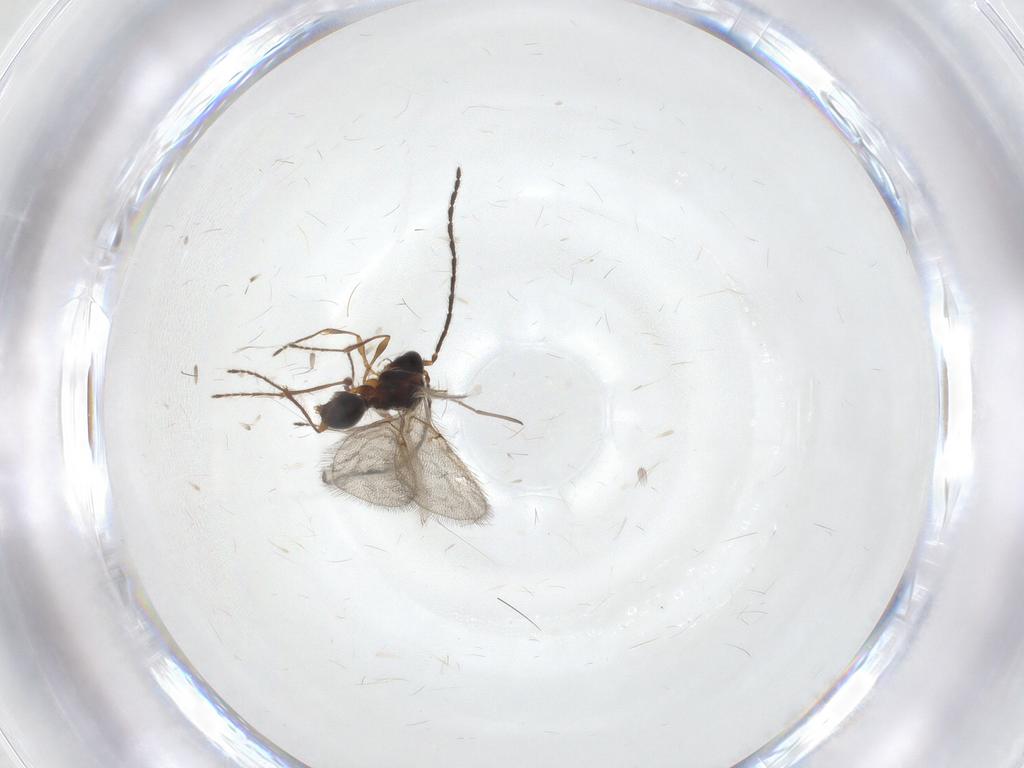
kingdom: Animalia
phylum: Arthropoda
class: Insecta
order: Hymenoptera
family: Diapriidae
